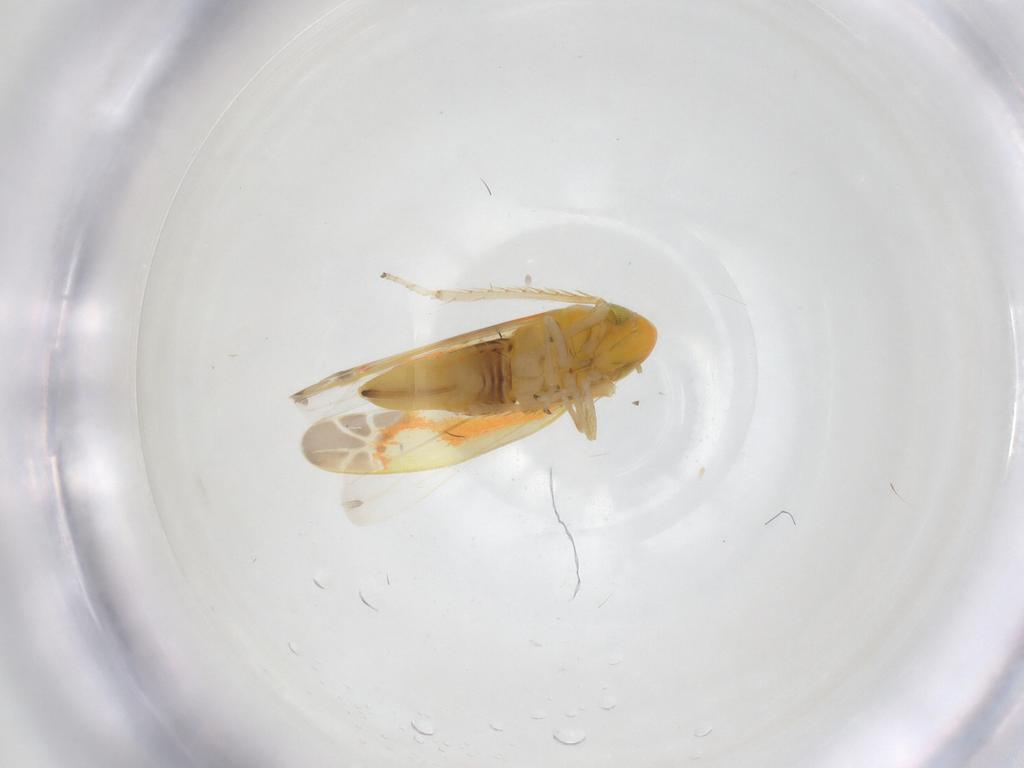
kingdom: Animalia
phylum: Arthropoda
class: Insecta
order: Hemiptera
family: Cicadellidae
